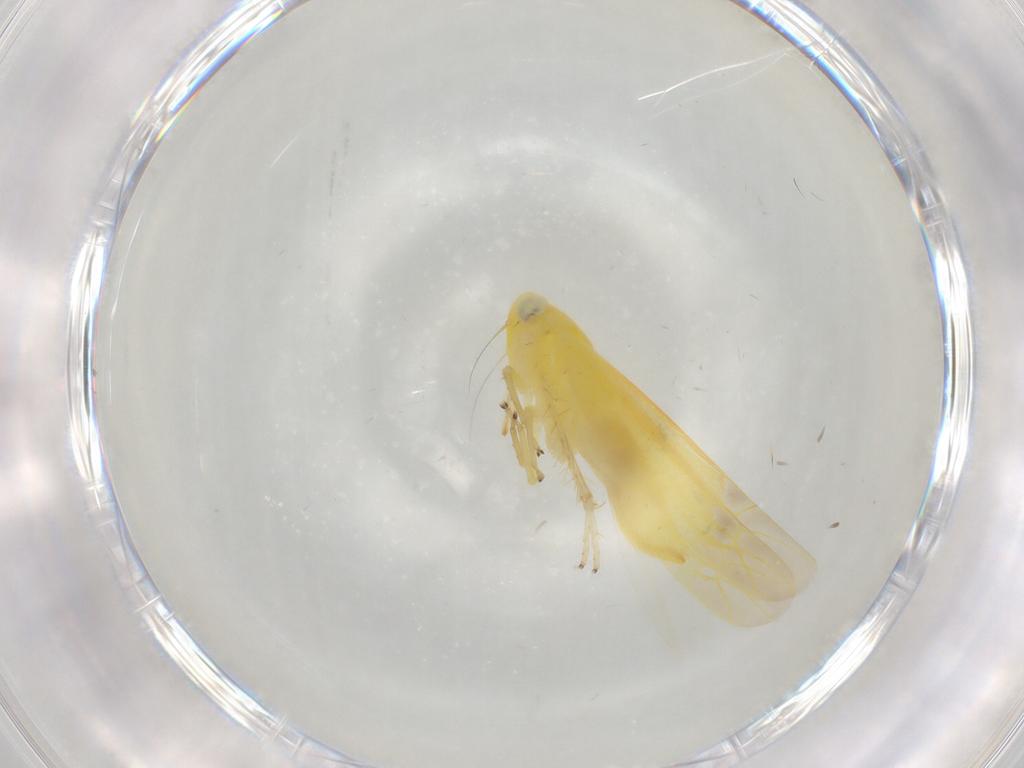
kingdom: Animalia
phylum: Arthropoda
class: Insecta
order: Hemiptera
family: Cicadellidae
